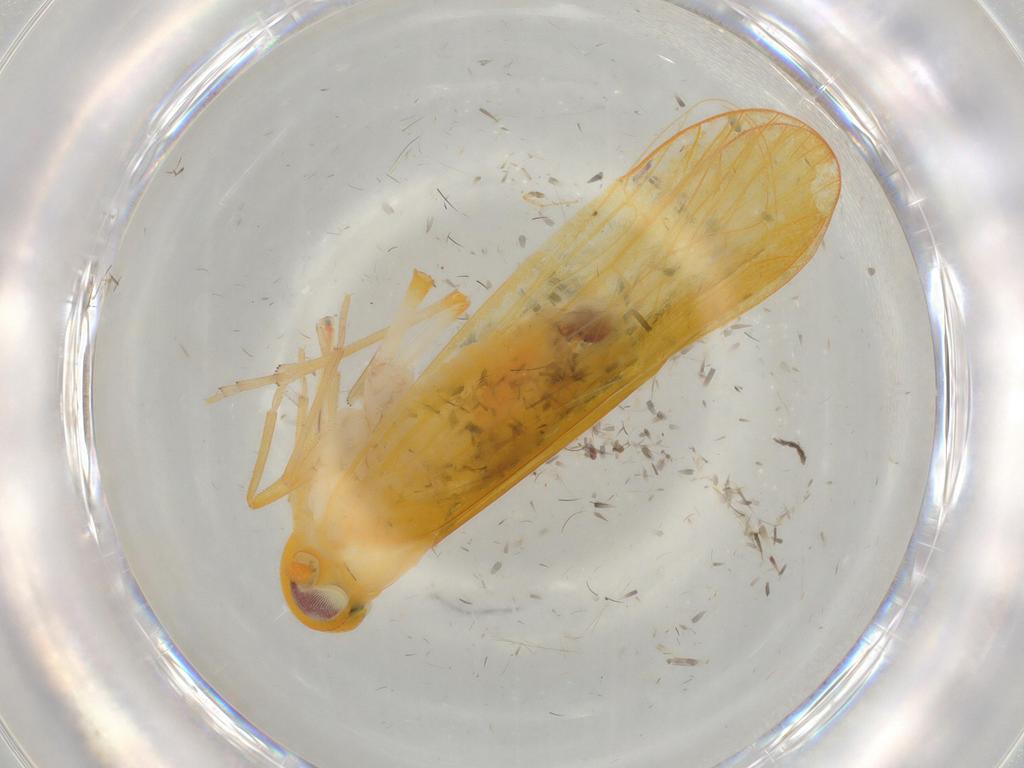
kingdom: Animalia
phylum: Arthropoda
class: Insecta
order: Hemiptera
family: Derbidae
